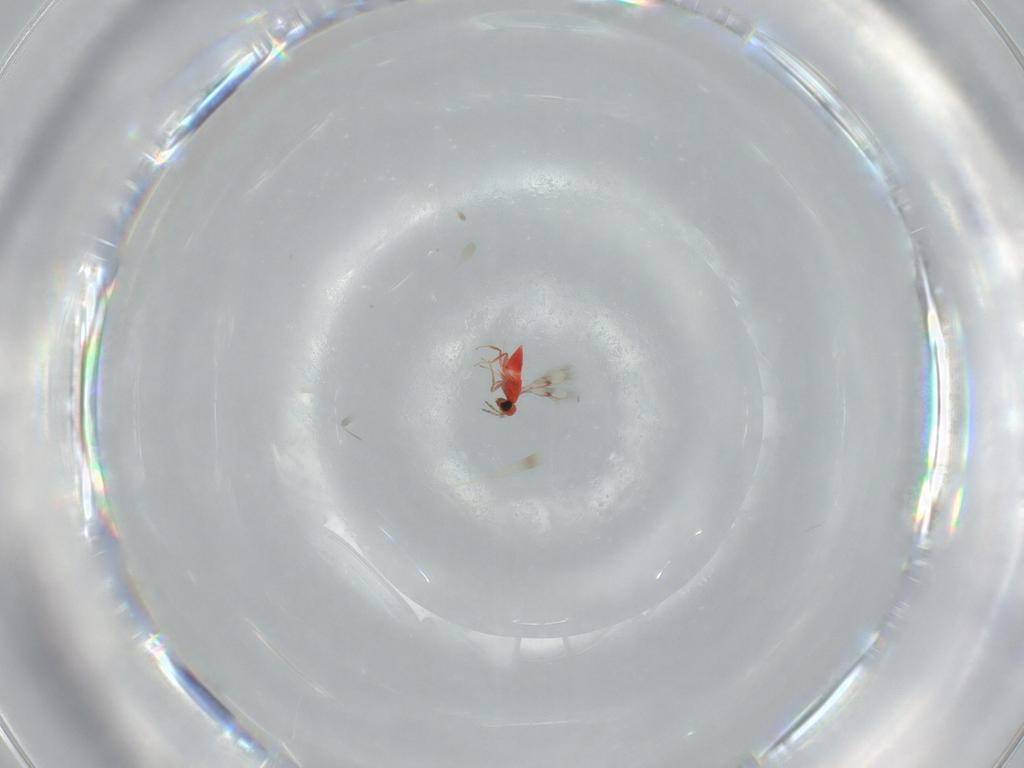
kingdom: Animalia
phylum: Arthropoda
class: Insecta
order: Hymenoptera
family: Trichogrammatidae
